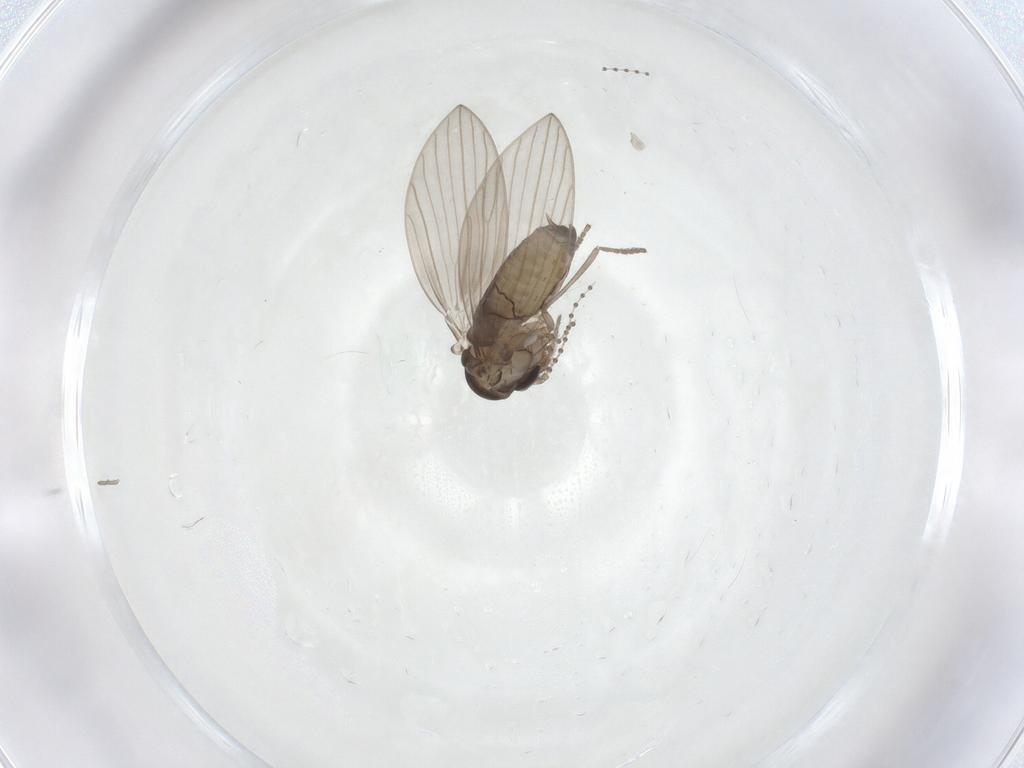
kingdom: Animalia
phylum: Arthropoda
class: Insecta
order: Diptera
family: Psychodidae
